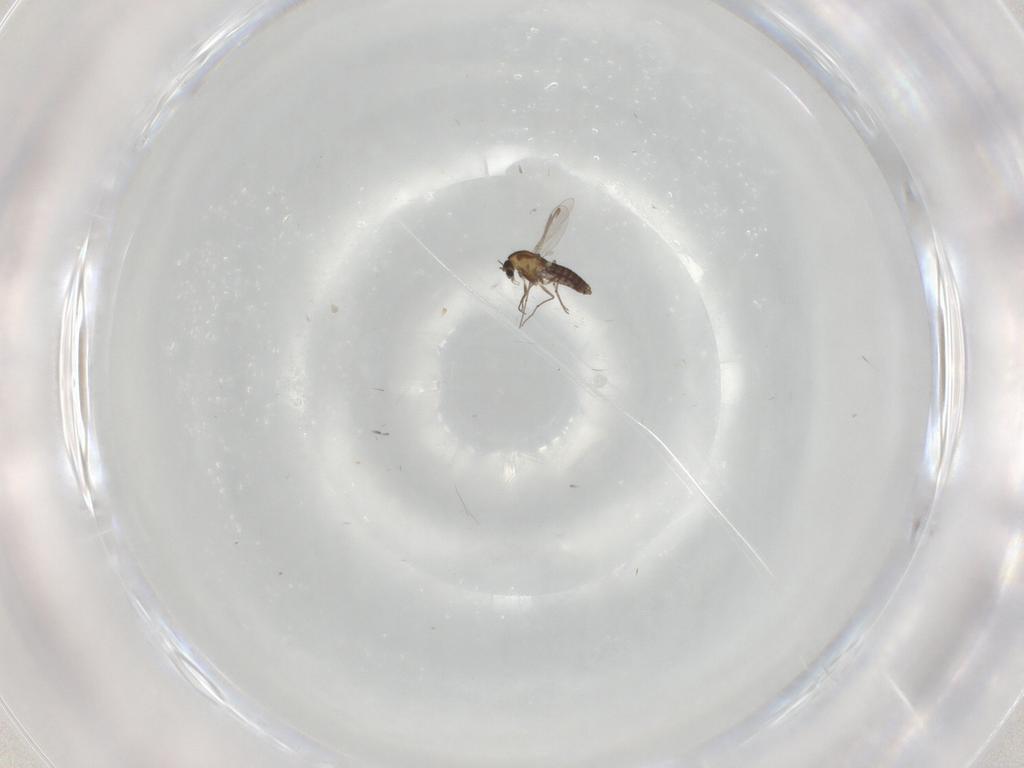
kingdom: Animalia
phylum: Arthropoda
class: Insecta
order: Diptera
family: Chironomidae
